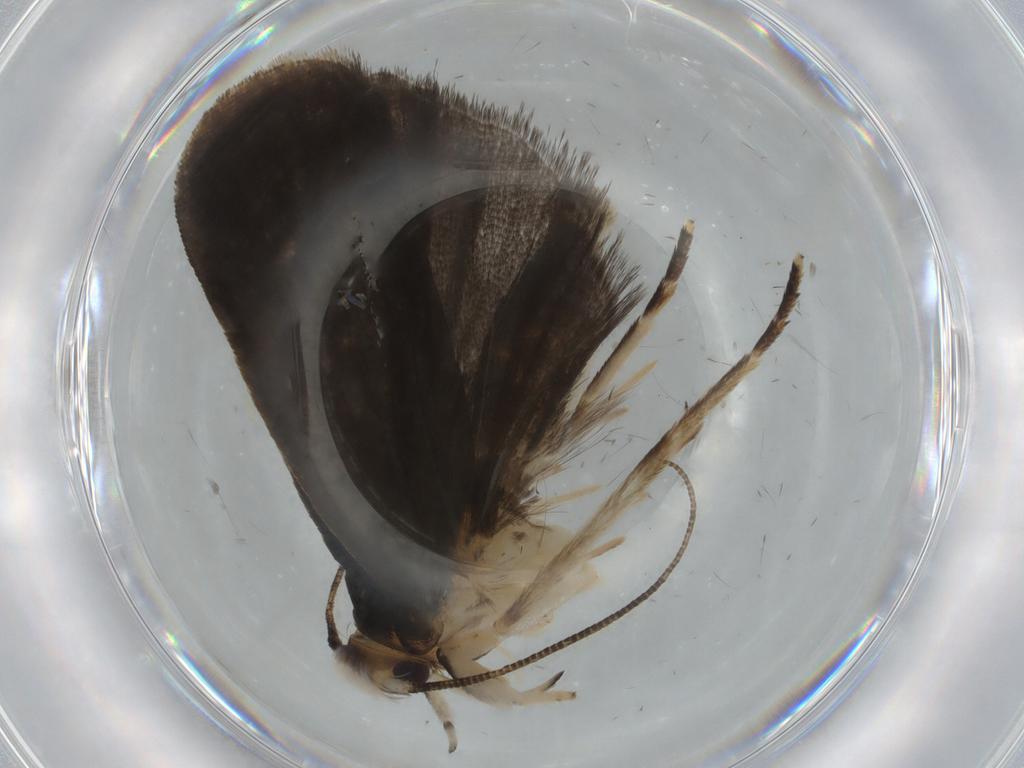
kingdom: Animalia
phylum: Arthropoda
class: Insecta
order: Lepidoptera
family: Gelechiidae
